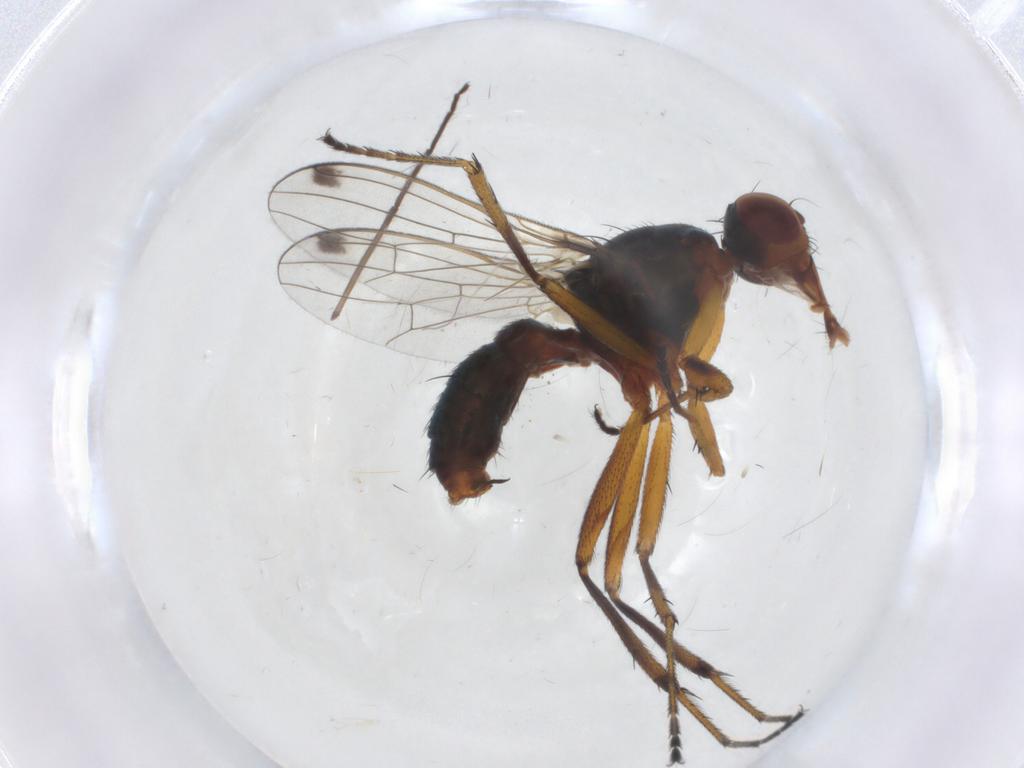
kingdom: Animalia
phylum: Arthropoda
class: Insecta
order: Diptera
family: Sepsidae
